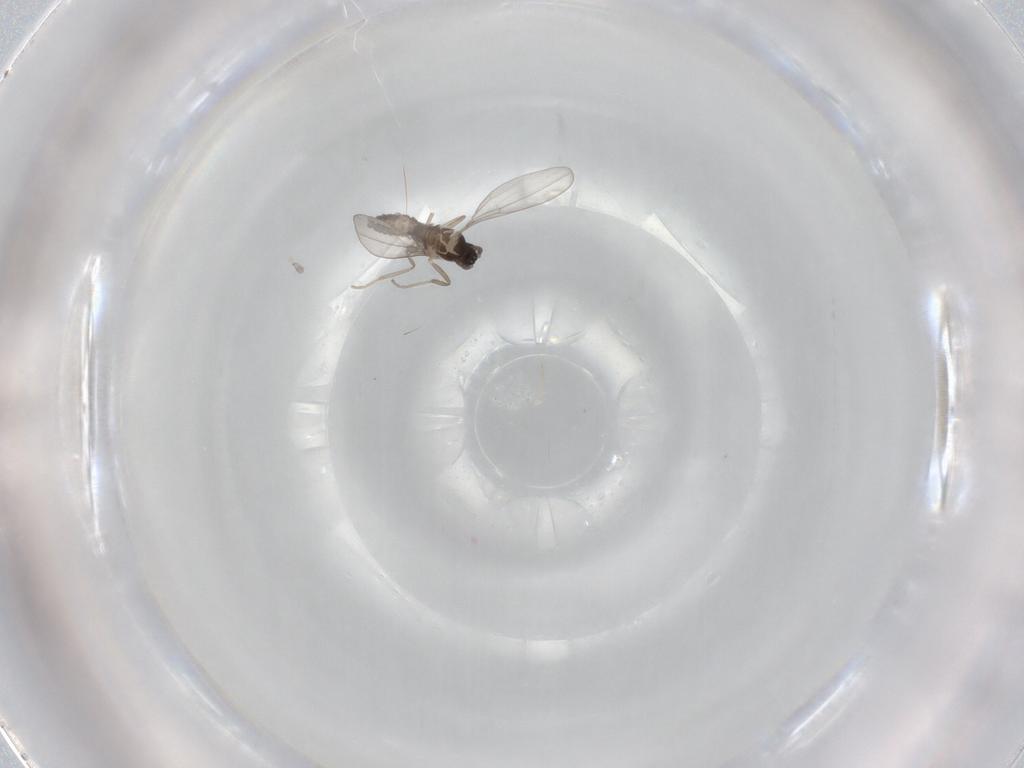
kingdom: Animalia
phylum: Arthropoda
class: Insecta
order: Diptera
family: Cecidomyiidae
